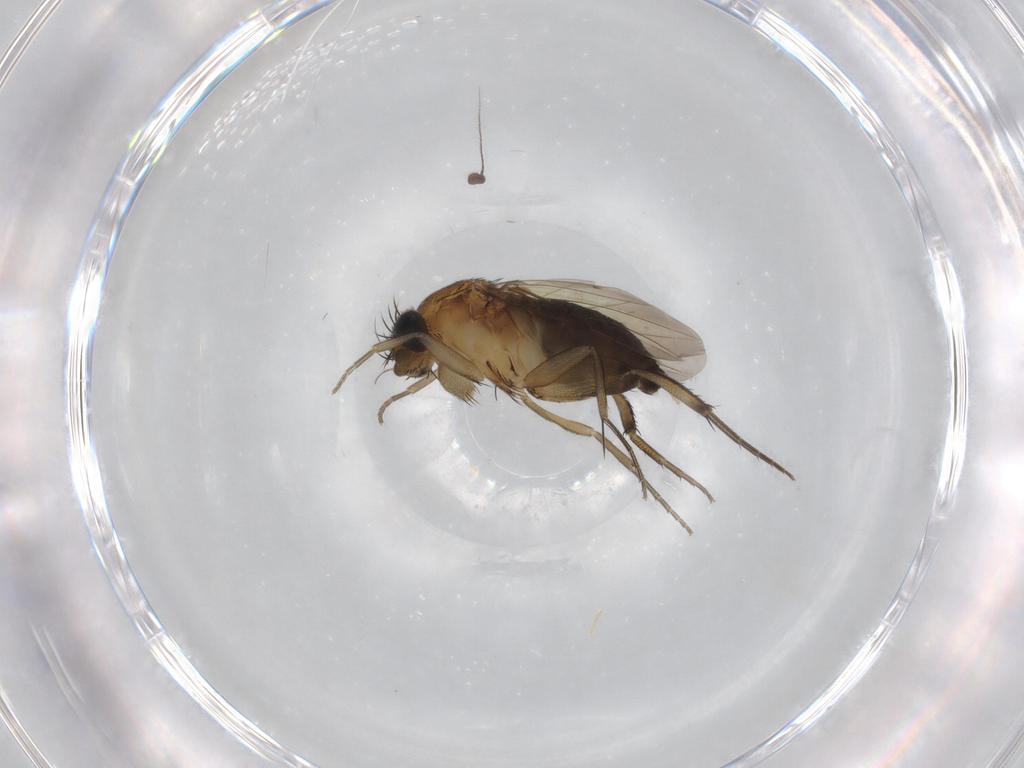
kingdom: Animalia
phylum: Arthropoda
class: Insecta
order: Diptera
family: Dolichopodidae
